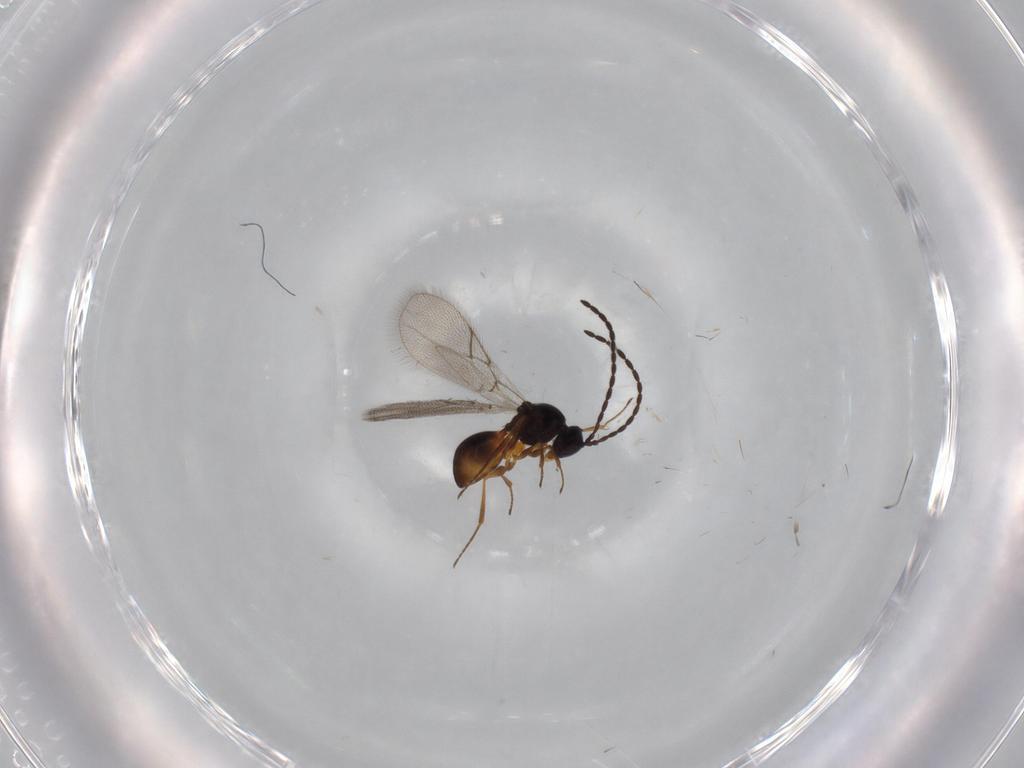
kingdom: Animalia
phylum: Arthropoda
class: Insecta
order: Hymenoptera
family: Figitidae
